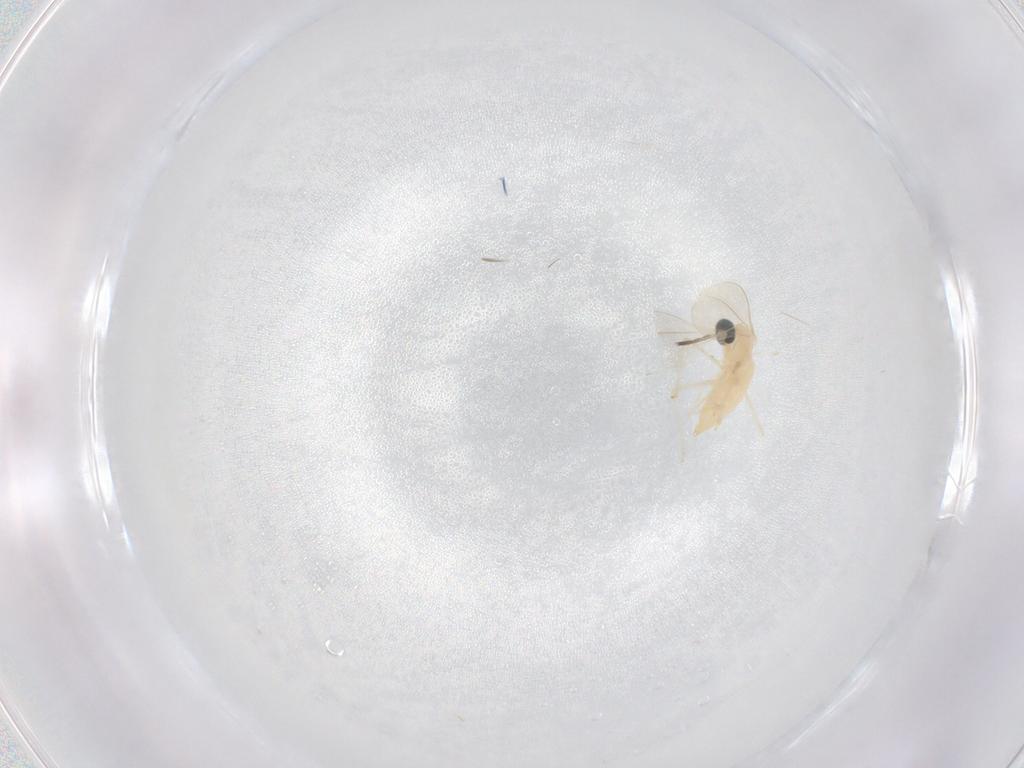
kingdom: Animalia
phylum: Arthropoda
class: Insecta
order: Diptera
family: Cecidomyiidae
